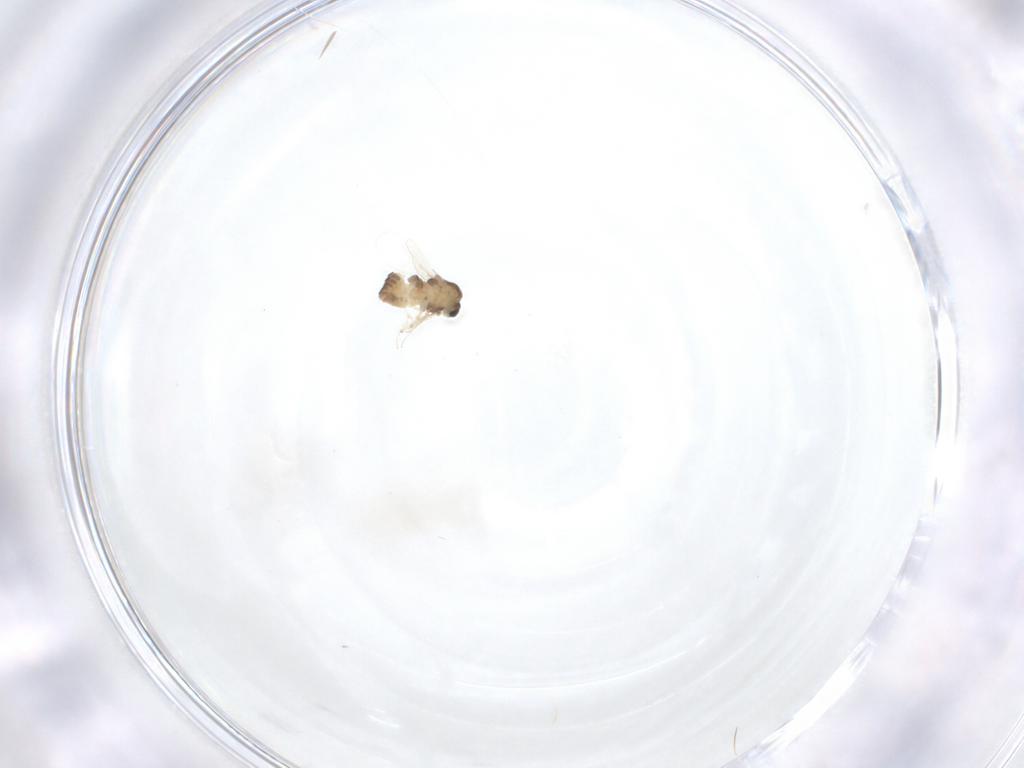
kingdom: Animalia
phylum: Arthropoda
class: Insecta
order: Diptera
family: Chironomidae
